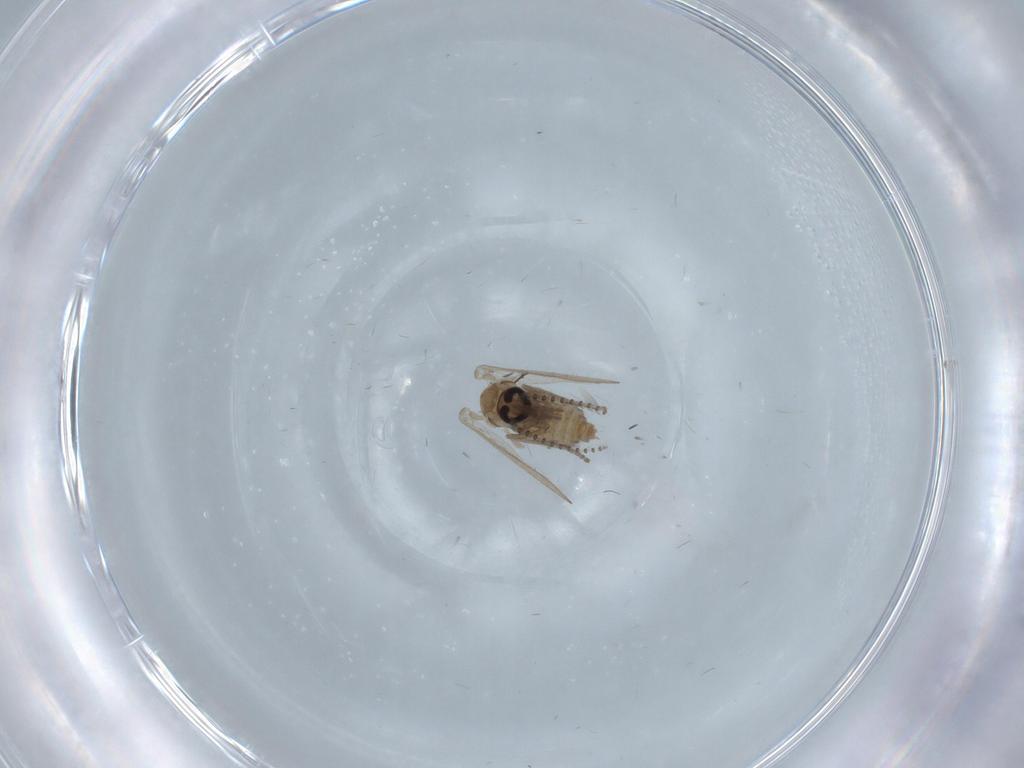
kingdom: Animalia
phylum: Arthropoda
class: Insecta
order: Diptera
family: Psychodidae
